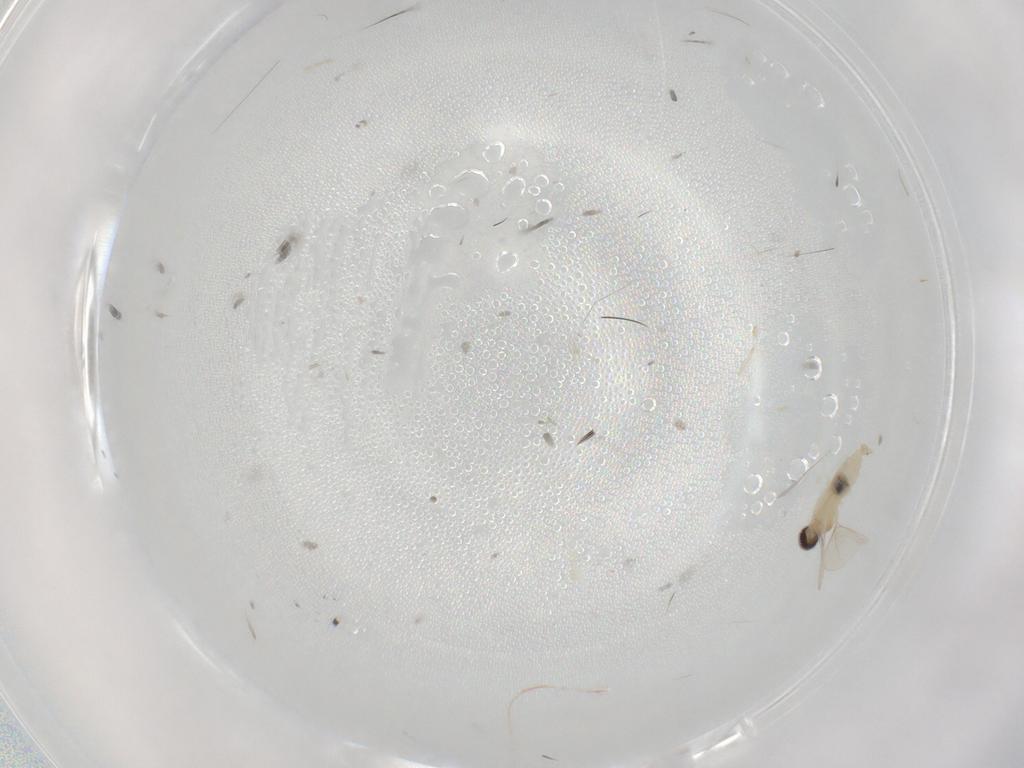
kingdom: Animalia
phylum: Arthropoda
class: Insecta
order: Diptera
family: Cecidomyiidae
